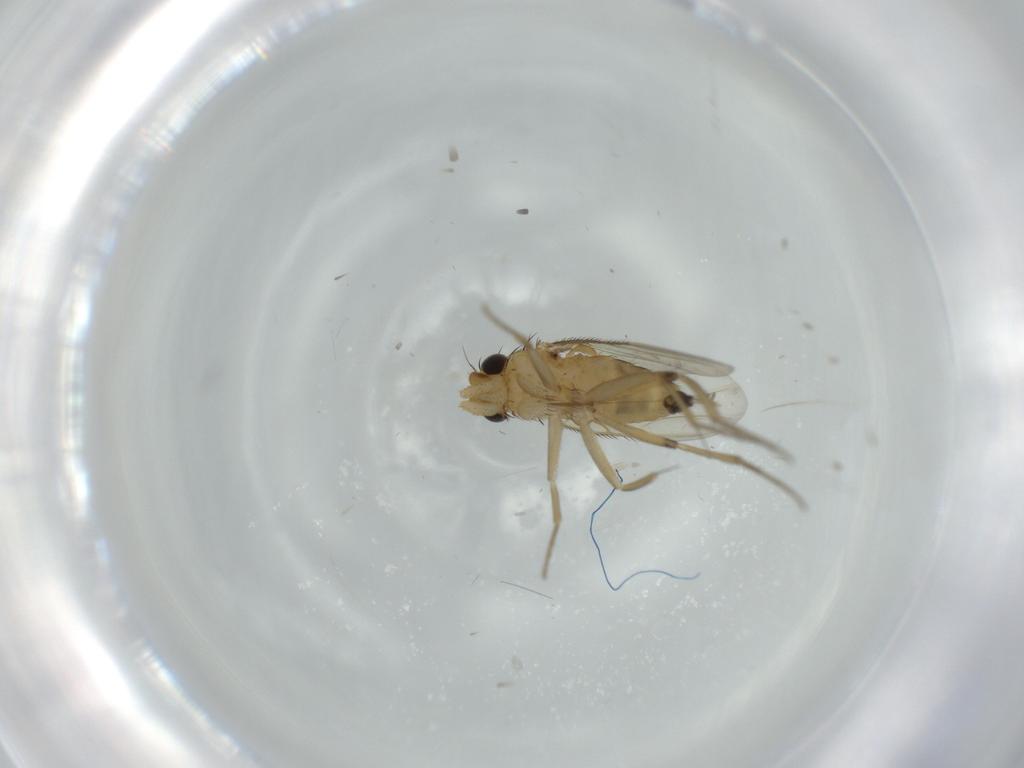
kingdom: Animalia
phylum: Arthropoda
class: Insecta
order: Diptera
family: Phoridae
